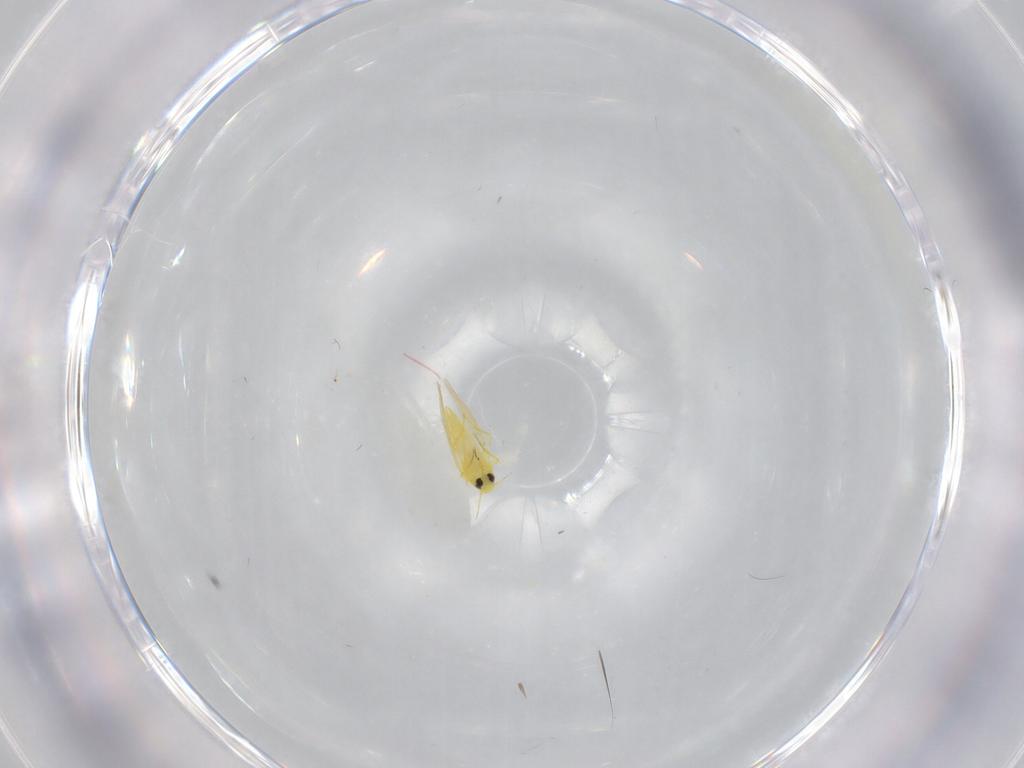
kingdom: Animalia
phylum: Arthropoda
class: Insecta
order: Hemiptera
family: Aleyrodidae
